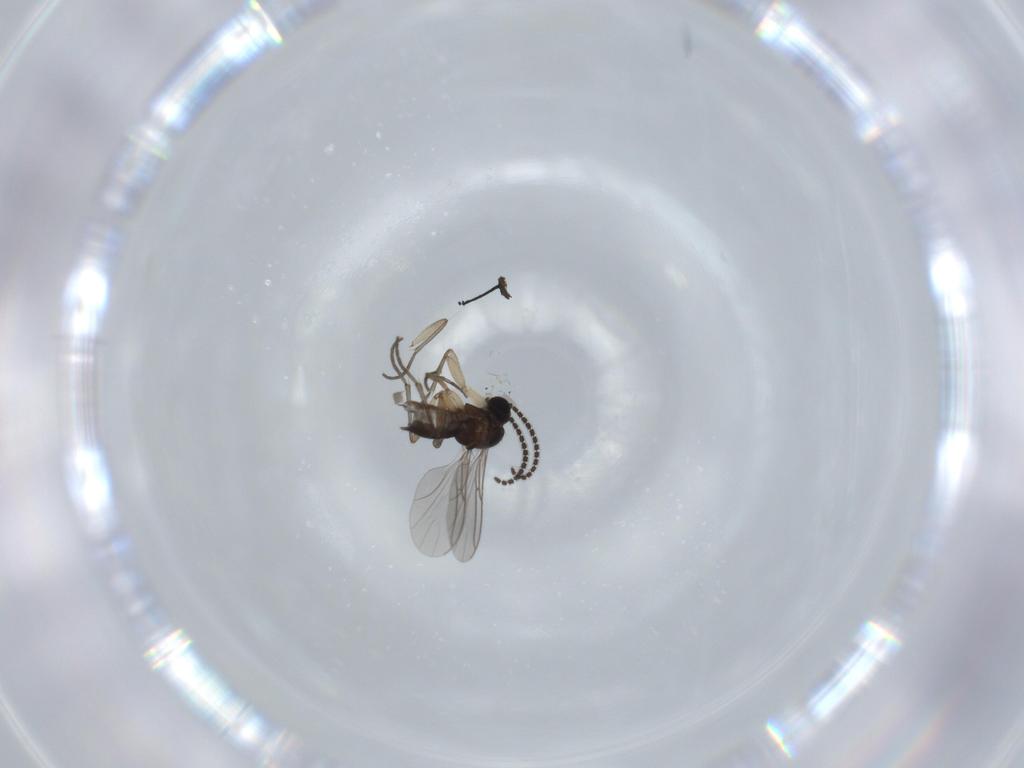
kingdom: Animalia
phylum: Arthropoda
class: Insecta
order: Diptera
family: Sciaridae
